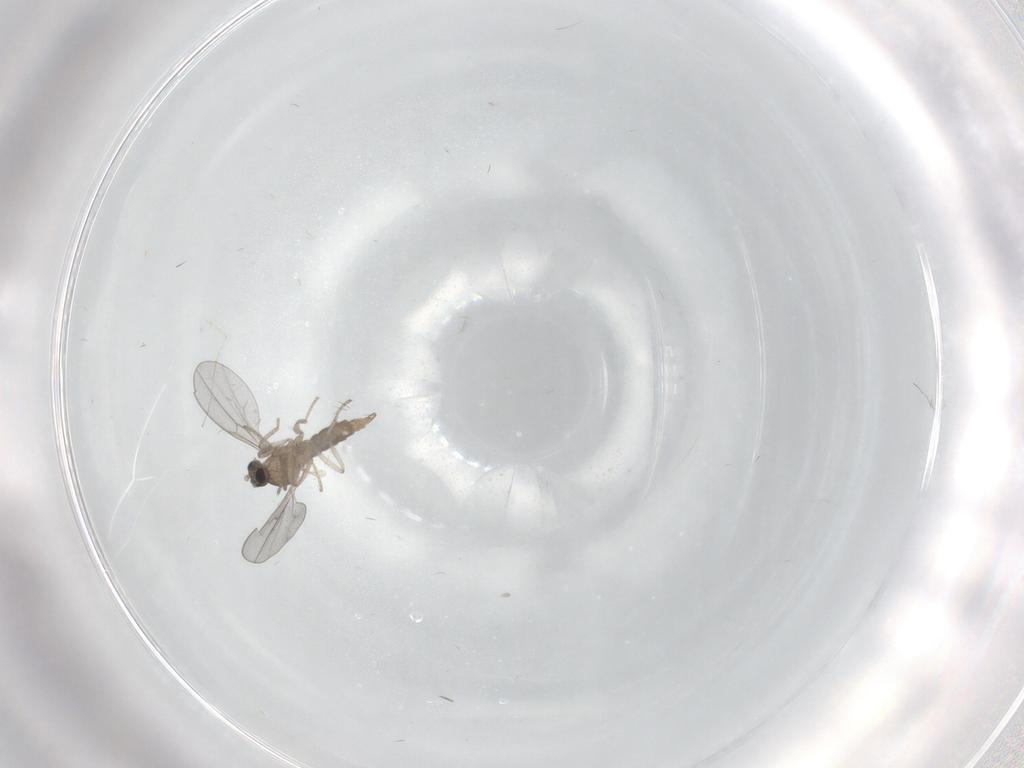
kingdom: Animalia
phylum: Arthropoda
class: Insecta
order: Diptera
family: Cecidomyiidae
